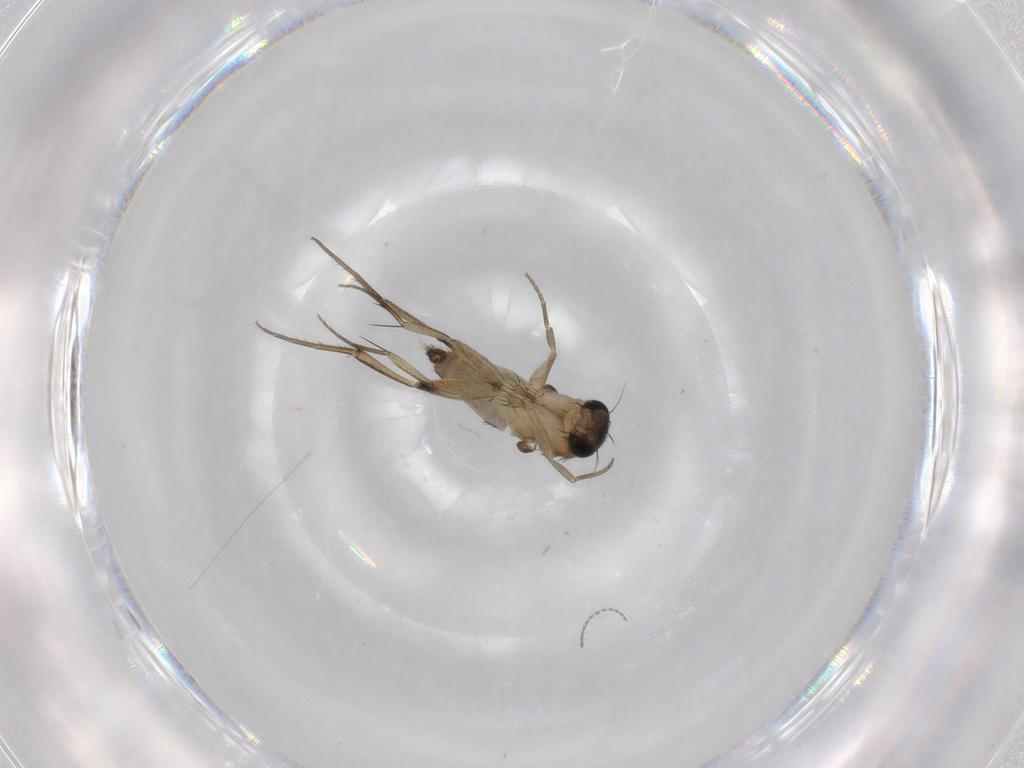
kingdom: Animalia
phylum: Arthropoda
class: Insecta
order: Diptera
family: Phoridae
